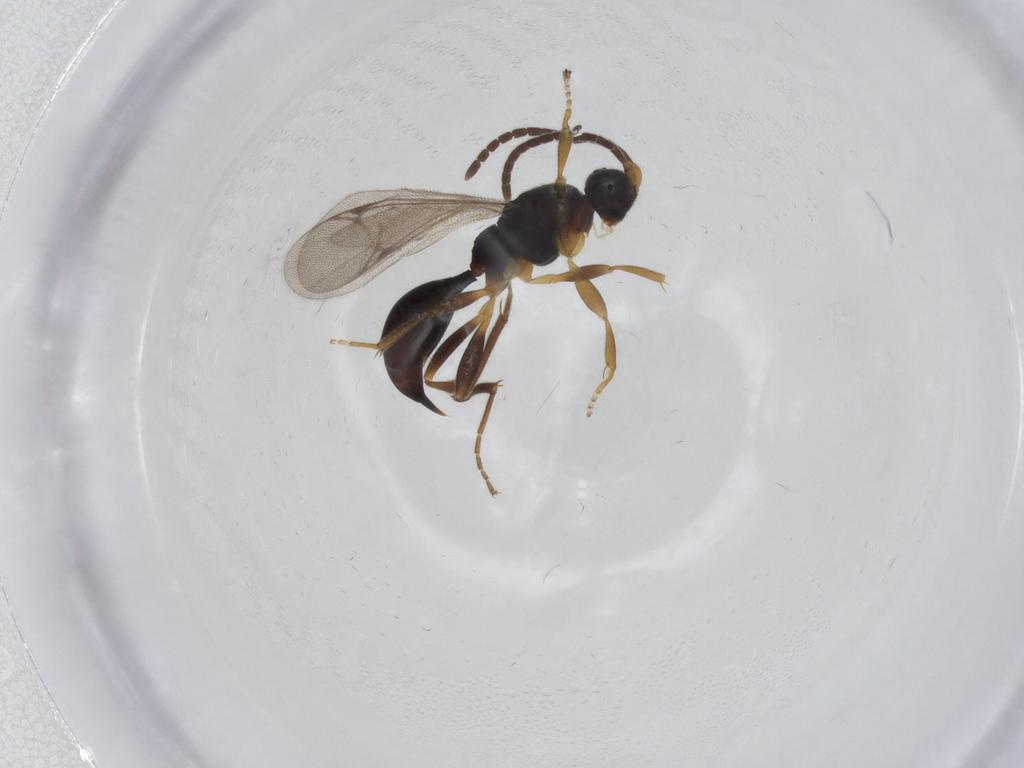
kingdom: Animalia
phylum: Arthropoda
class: Insecta
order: Hymenoptera
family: Proctotrupidae
